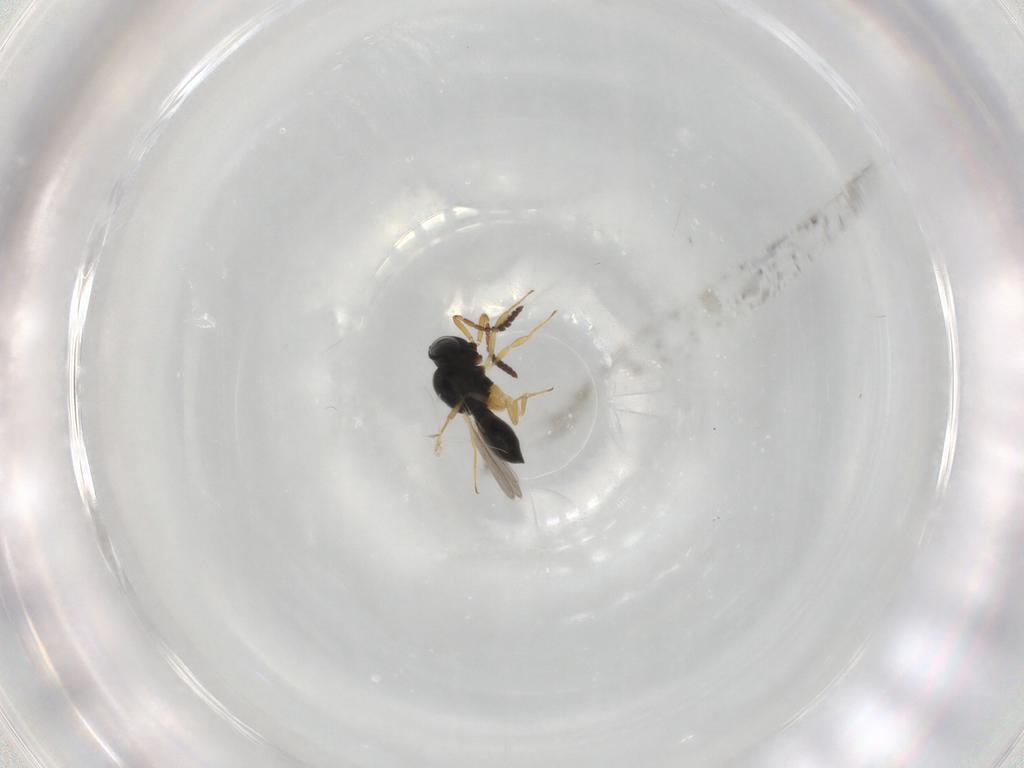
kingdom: Animalia
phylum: Arthropoda
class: Insecta
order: Hymenoptera
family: Scelionidae
